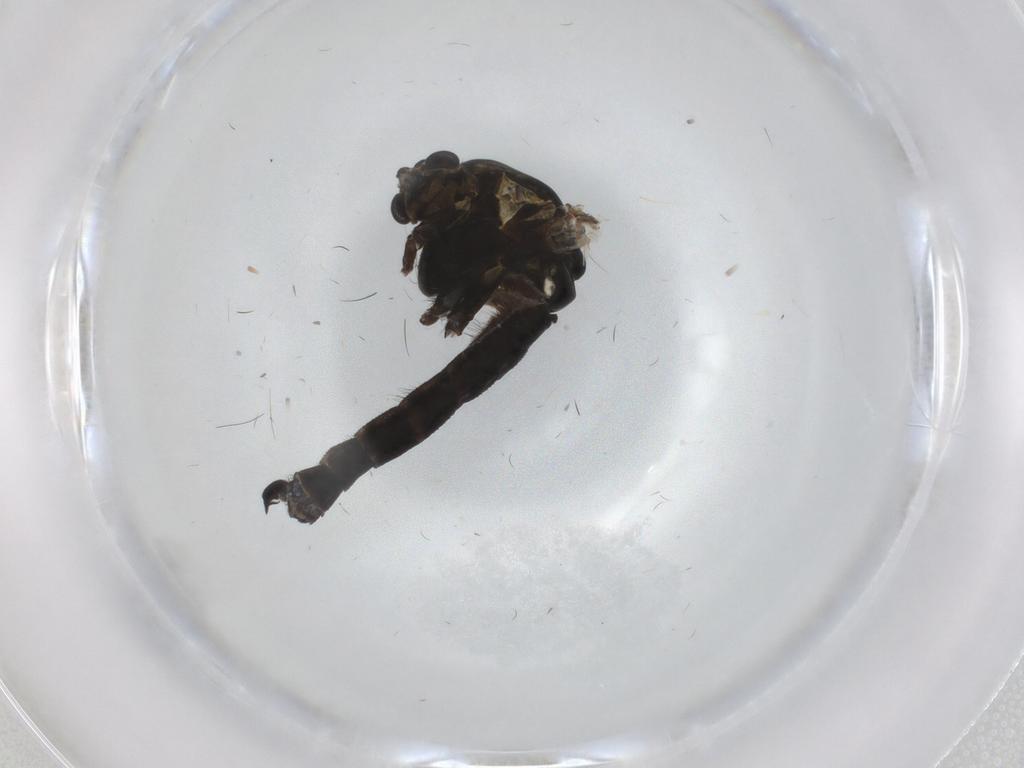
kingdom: Animalia
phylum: Arthropoda
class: Insecta
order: Diptera
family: Chironomidae
